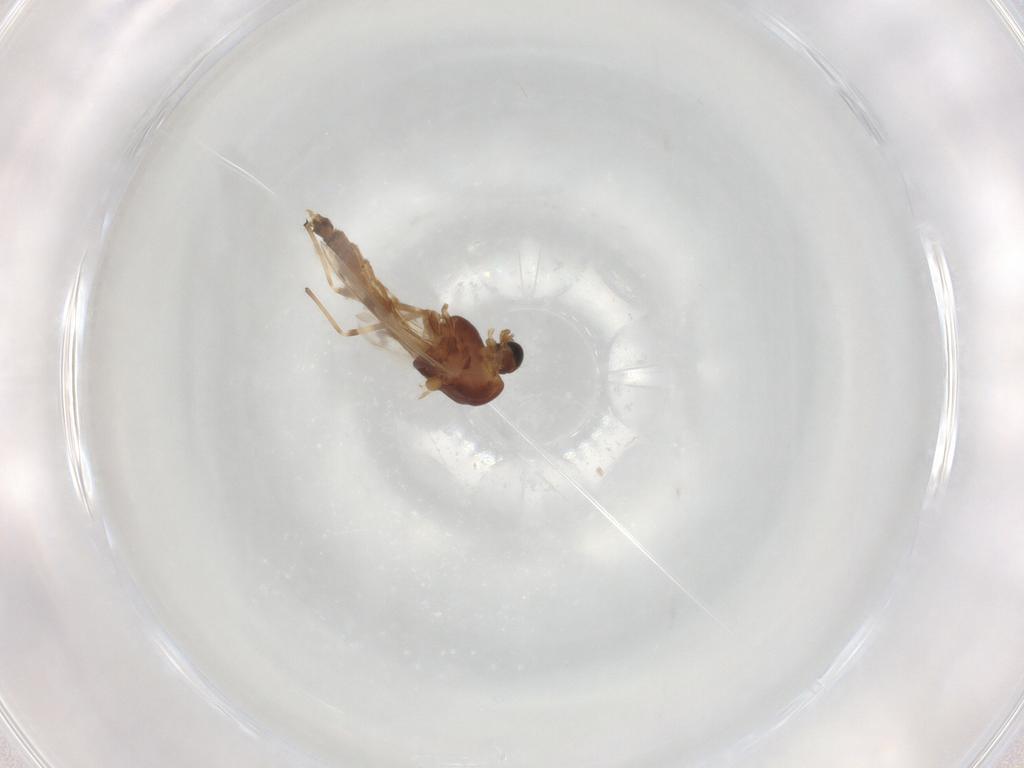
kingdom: Animalia
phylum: Arthropoda
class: Insecta
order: Diptera
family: Chironomidae
